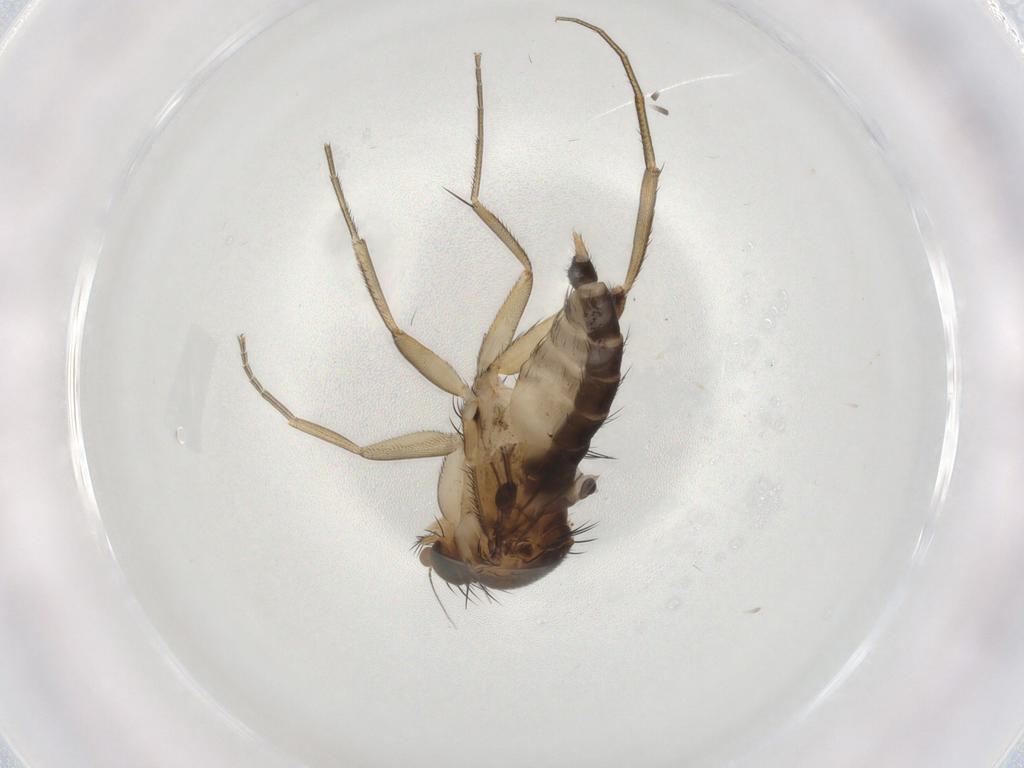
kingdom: Animalia
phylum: Arthropoda
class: Insecta
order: Diptera
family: Phoridae
